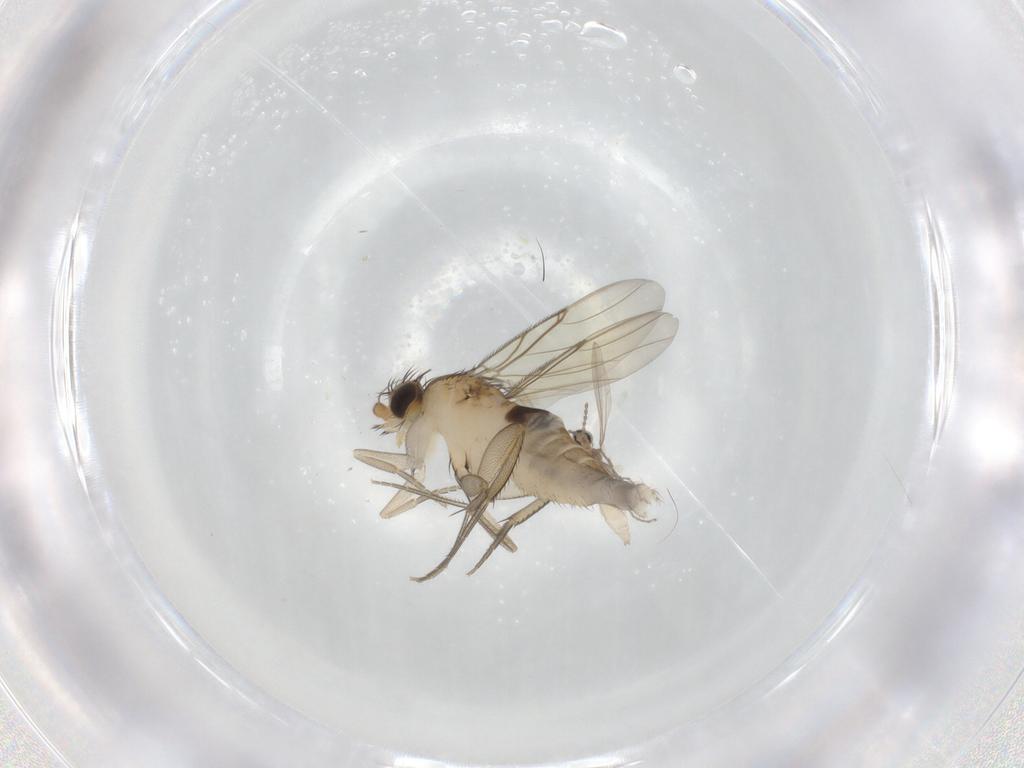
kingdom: Animalia
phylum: Arthropoda
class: Insecta
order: Diptera
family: Cecidomyiidae
